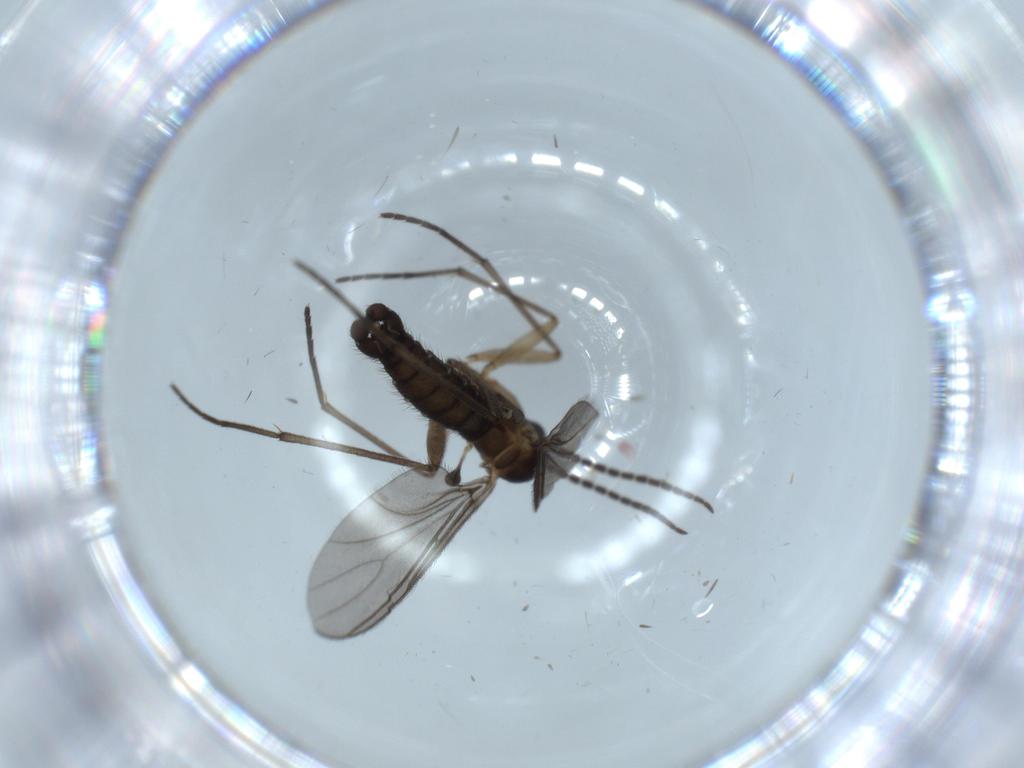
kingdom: Animalia
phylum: Arthropoda
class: Insecta
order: Diptera
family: Sciaridae
